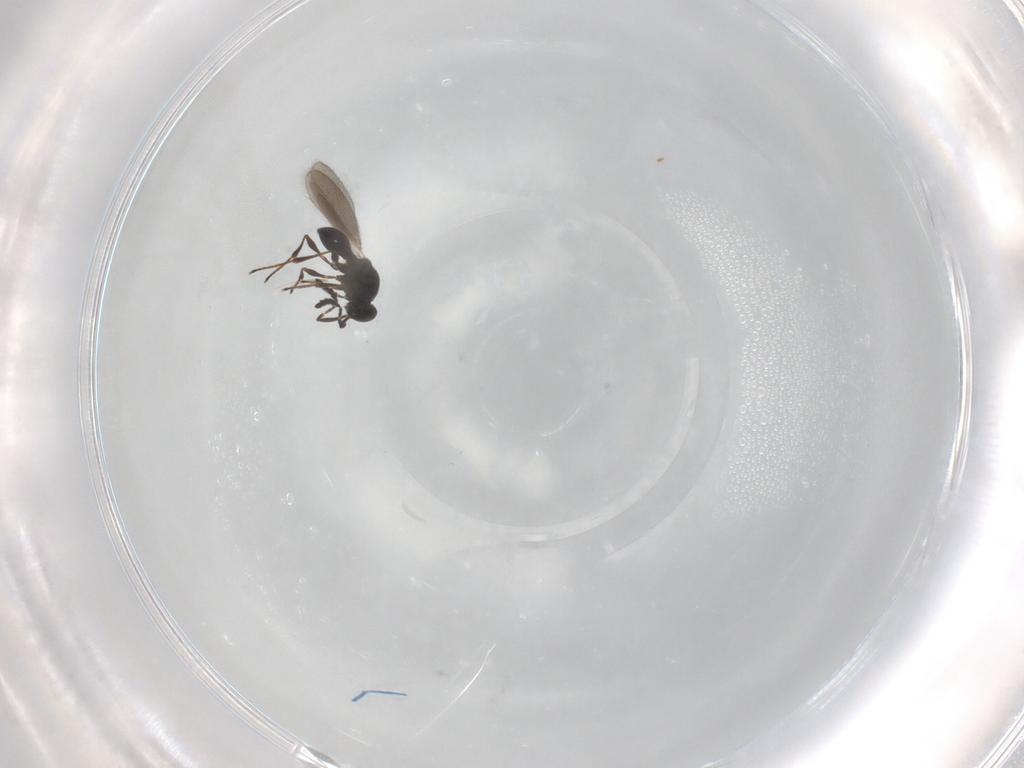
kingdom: Animalia
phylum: Arthropoda
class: Insecta
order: Hymenoptera
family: Platygastridae
